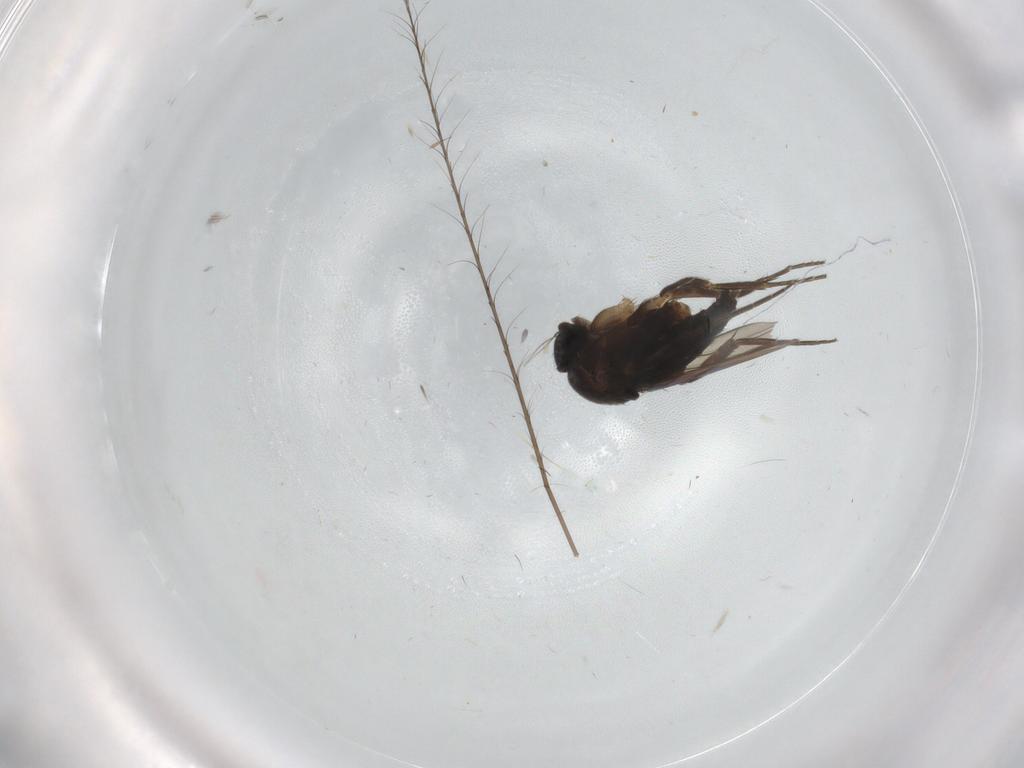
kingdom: Animalia
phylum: Arthropoda
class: Insecta
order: Diptera
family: Phoridae
